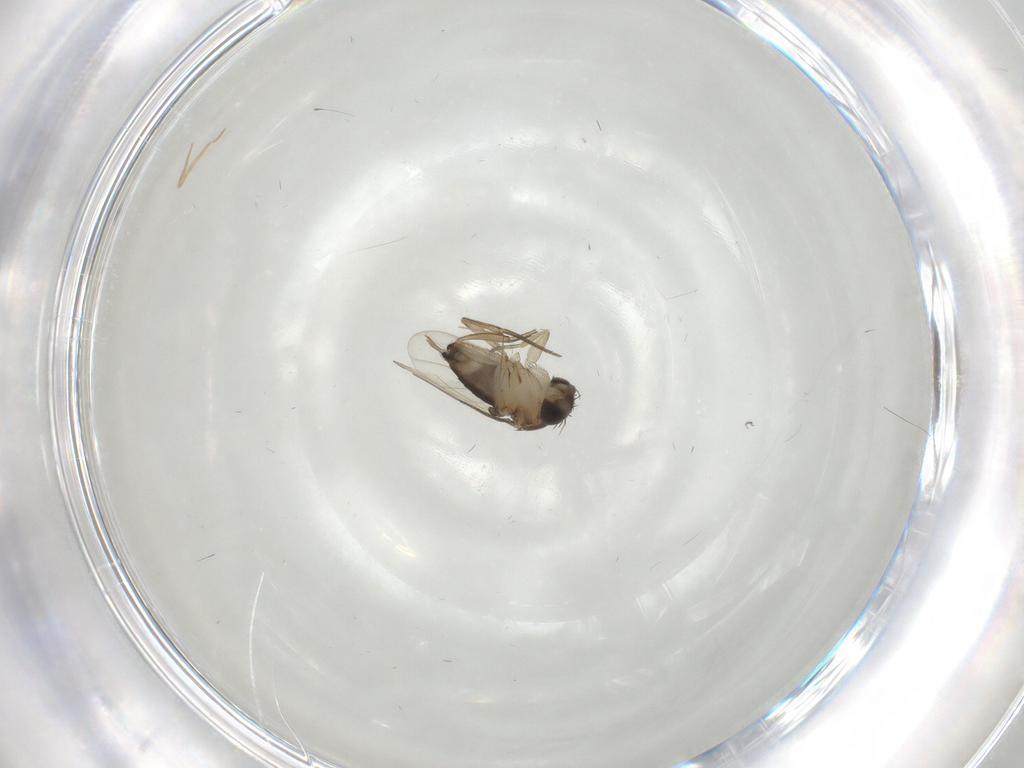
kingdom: Animalia
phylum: Arthropoda
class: Insecta
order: Diptera
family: Phoridae
